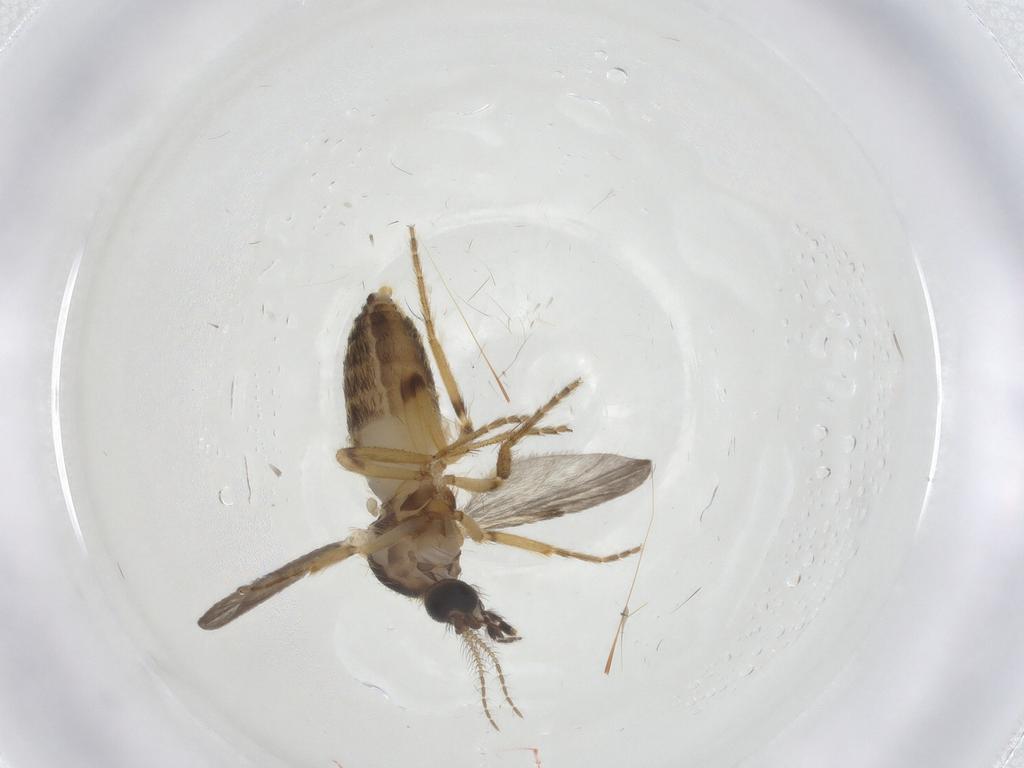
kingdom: Animalia
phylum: Arthropoda
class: Insecta
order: Diptera
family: Ceratopogonidae
